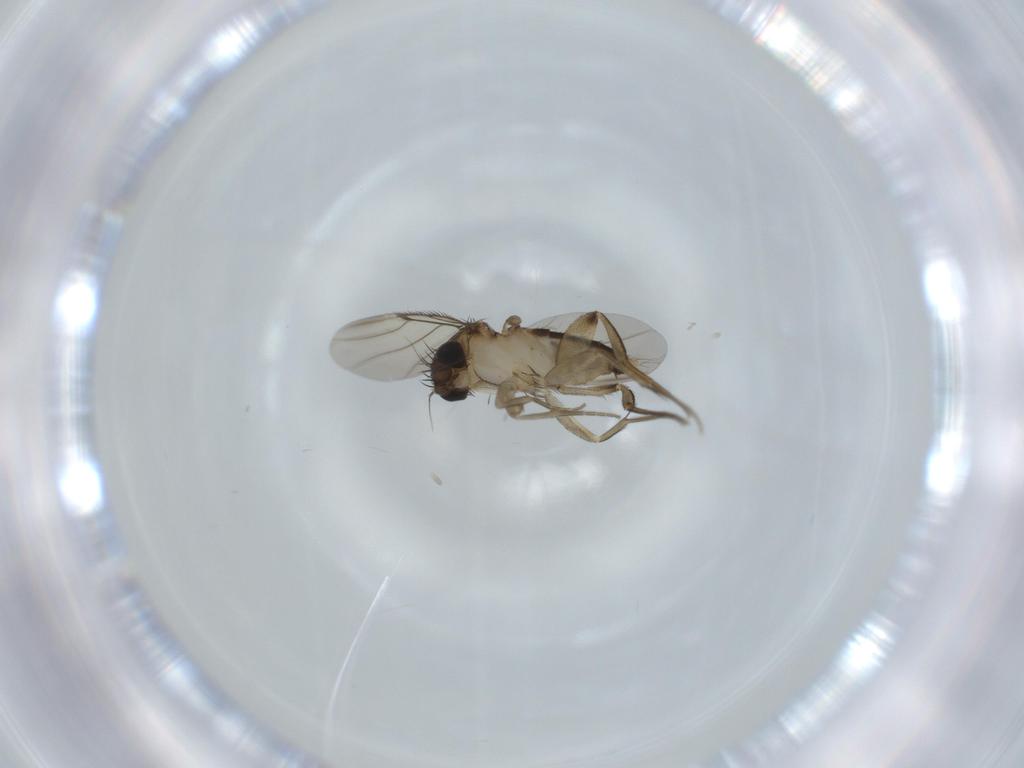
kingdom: Animalia
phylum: Arthropoda
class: Insecta
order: Diptera
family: Phoridae
